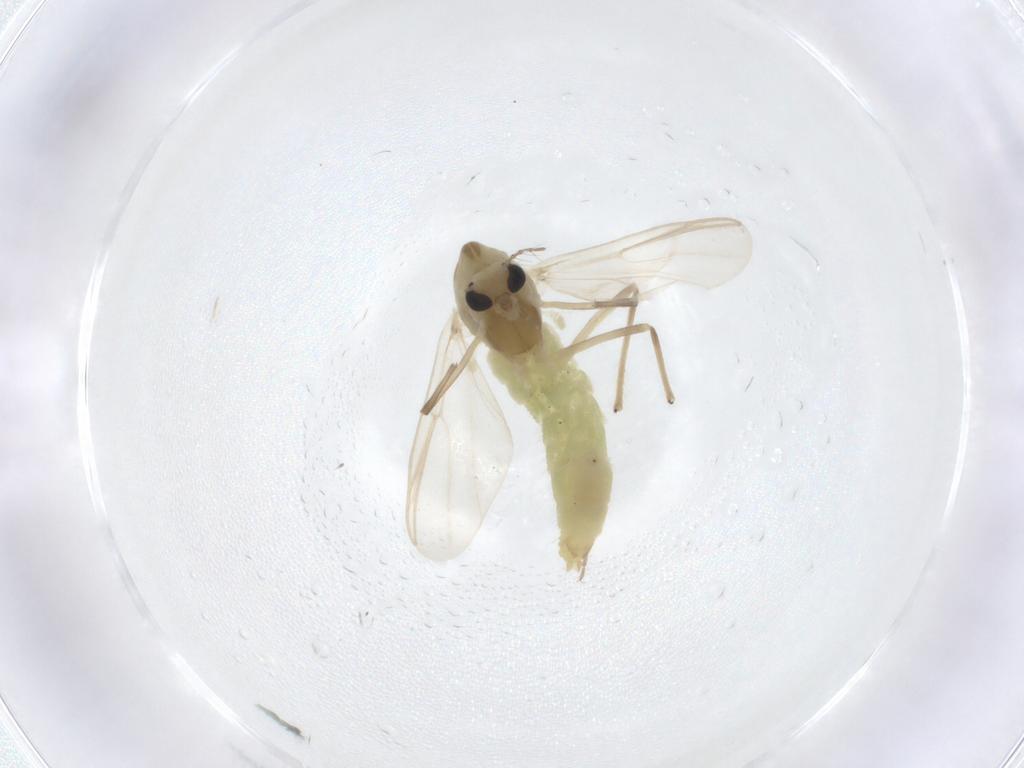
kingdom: Animalia
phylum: Arthropoda
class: Insecta
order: Diptera
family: Chironomidae
